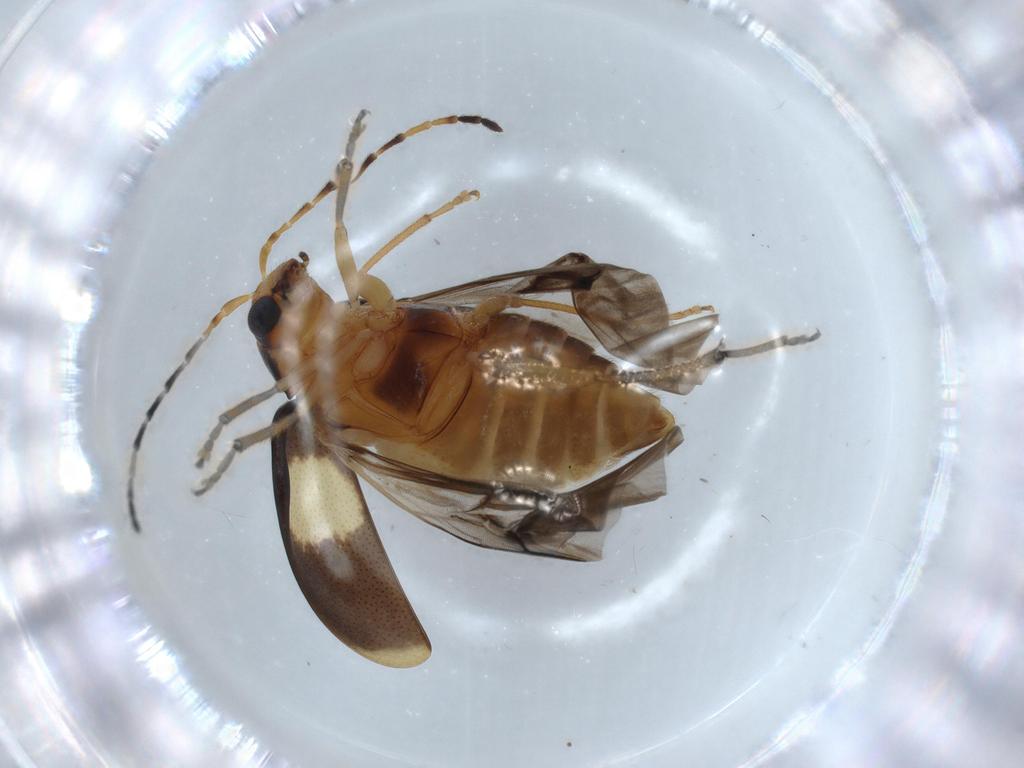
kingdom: Animalia
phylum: Arthropoda
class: Insecta
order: Coleoptera
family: Chrysomelidae
